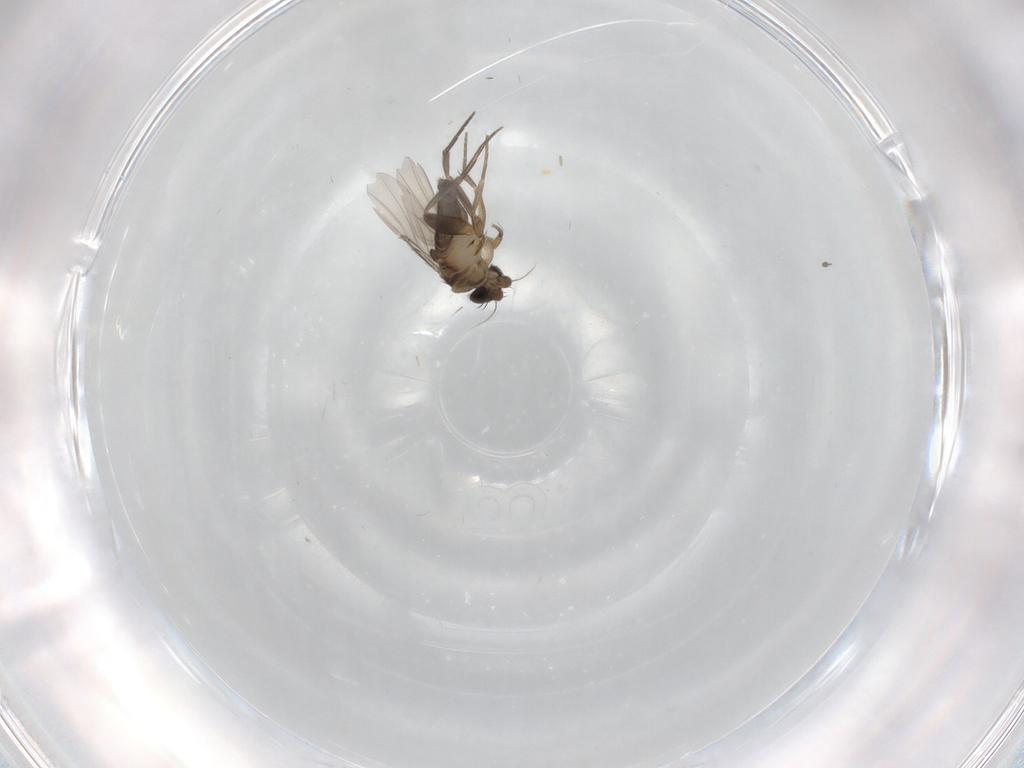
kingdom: Animalia
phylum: Arthropoda
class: Insecta
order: Diptera
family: Phoridae
